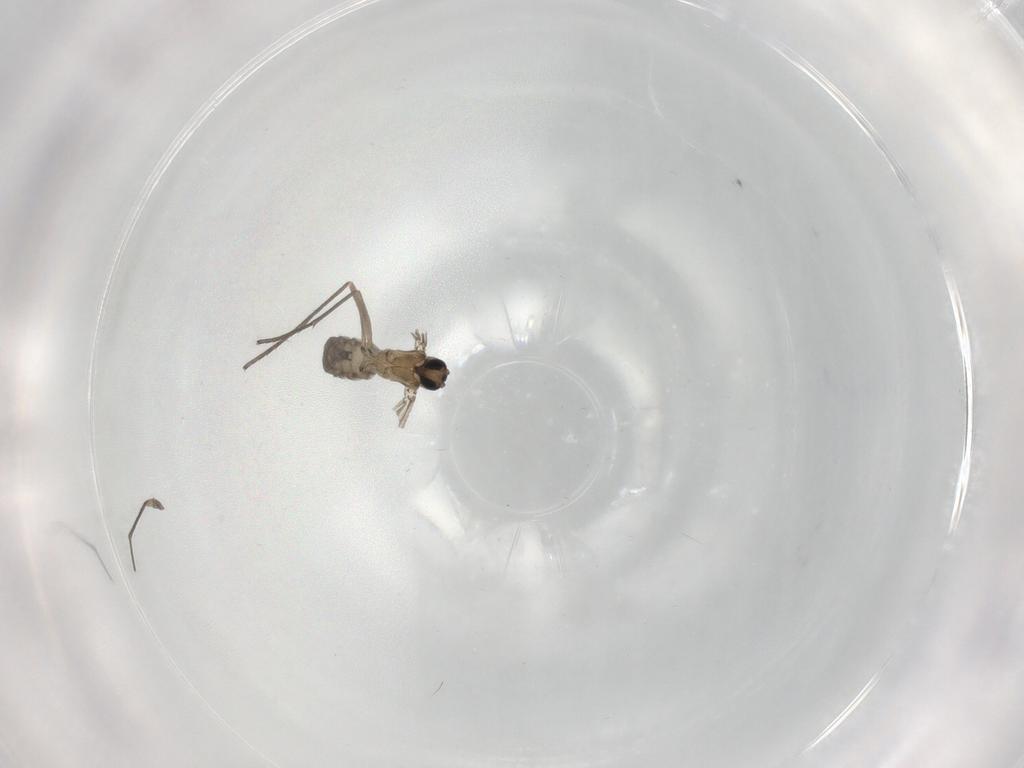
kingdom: Animalia
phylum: Arthropoda
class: Insecta
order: Diptera
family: Sciaridae
